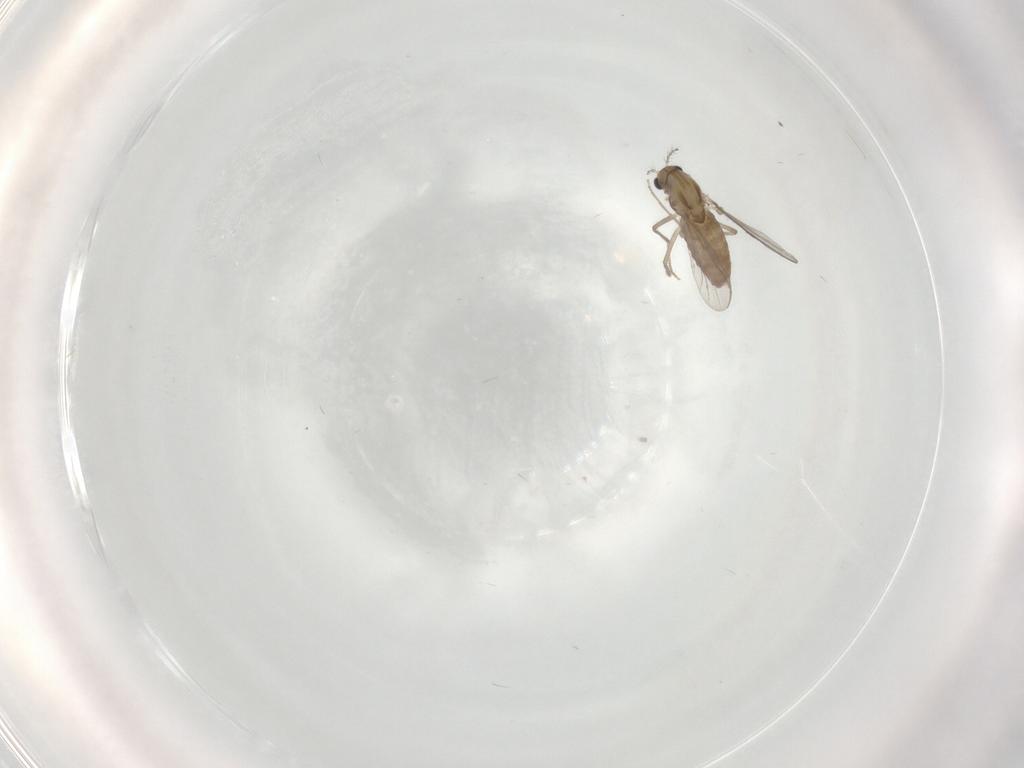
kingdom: Animalia
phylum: Arthropoda
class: Insecta
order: Diptera
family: Chironomidae
